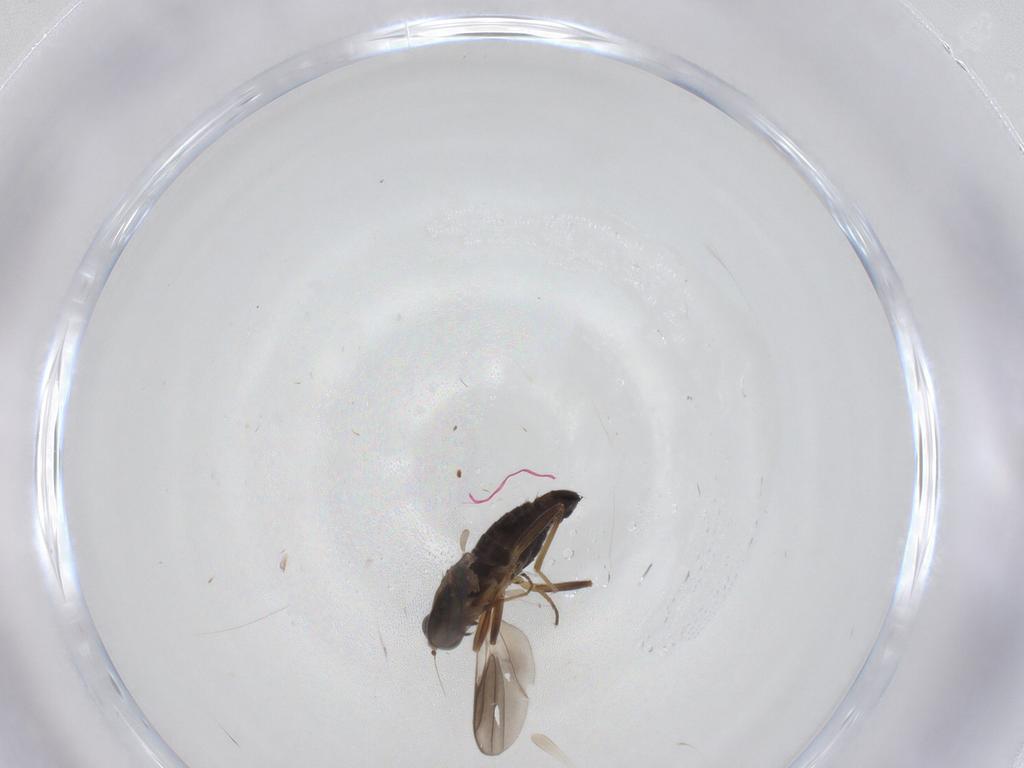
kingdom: Animalia
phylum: Arthropoda
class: Insecta
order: Diptera
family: Hybotidae
